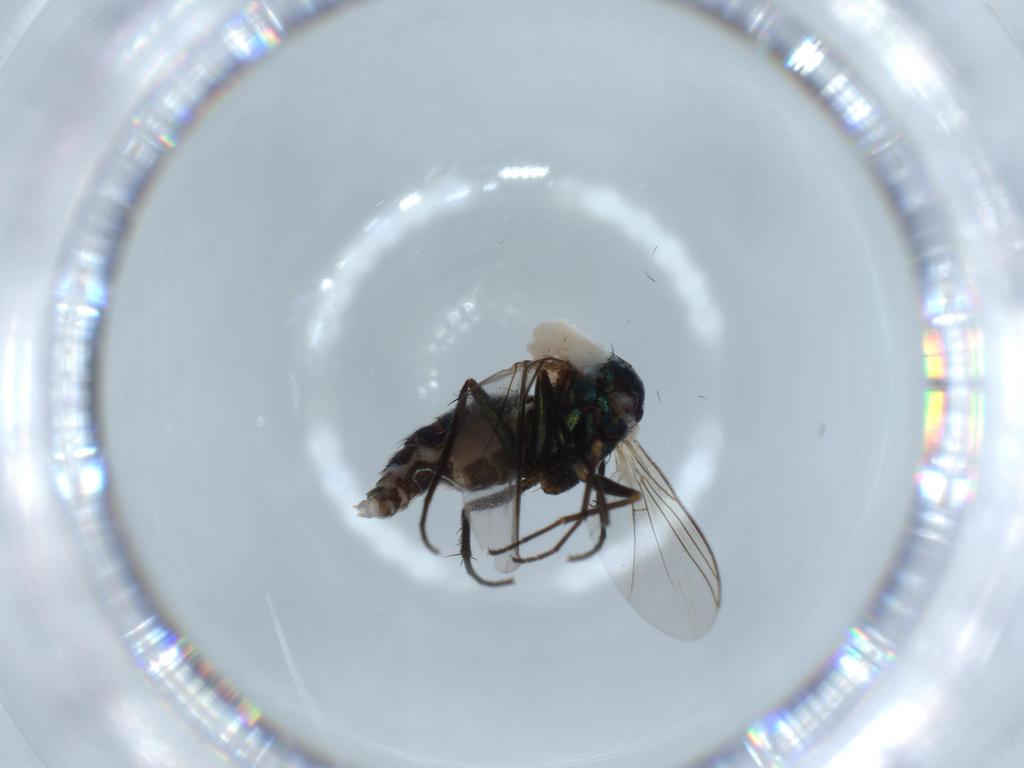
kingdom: Animalia
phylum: Arthropoda
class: Insecta
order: Diptera
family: Dolichopodidae
